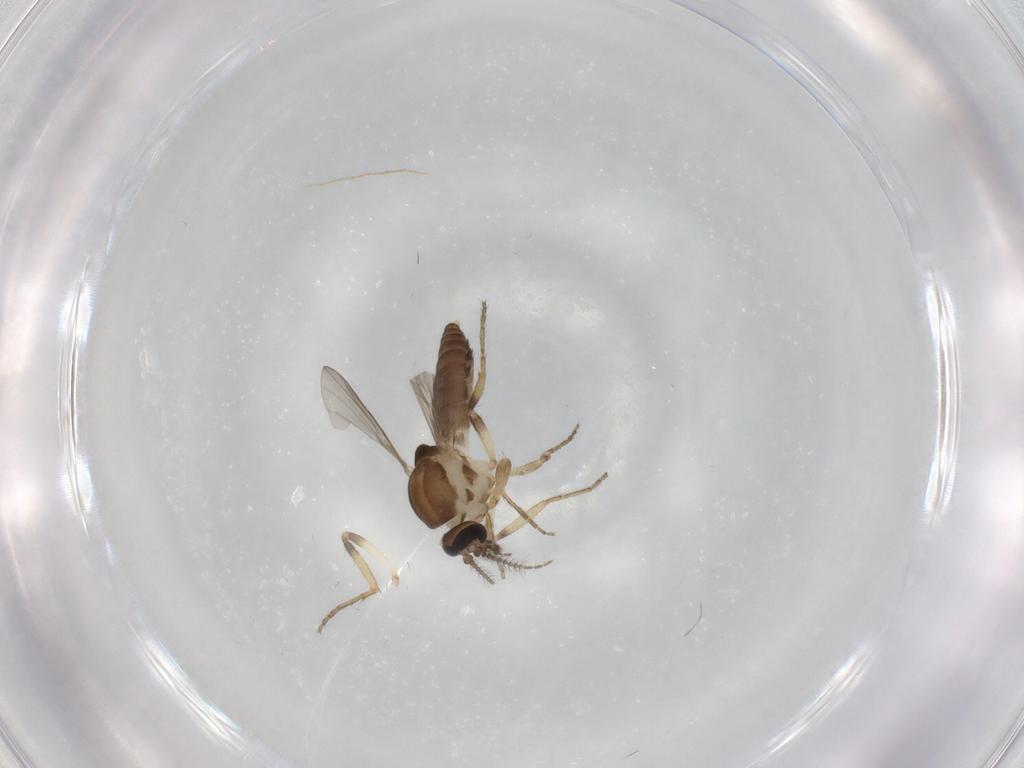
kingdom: Animalia
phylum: Arthropoda
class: Insecta
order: Diptera
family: Ceratopogonidae
